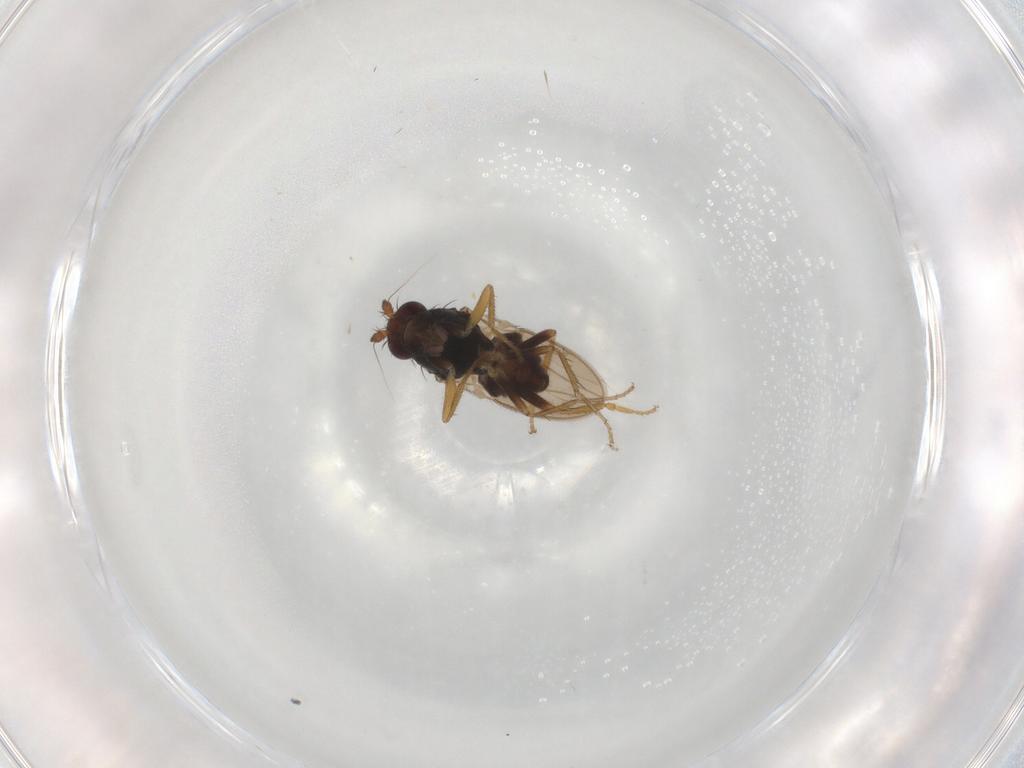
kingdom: Animalia
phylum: Arthropoda
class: Insecta
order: Diptera
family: Sphaeroceridae
